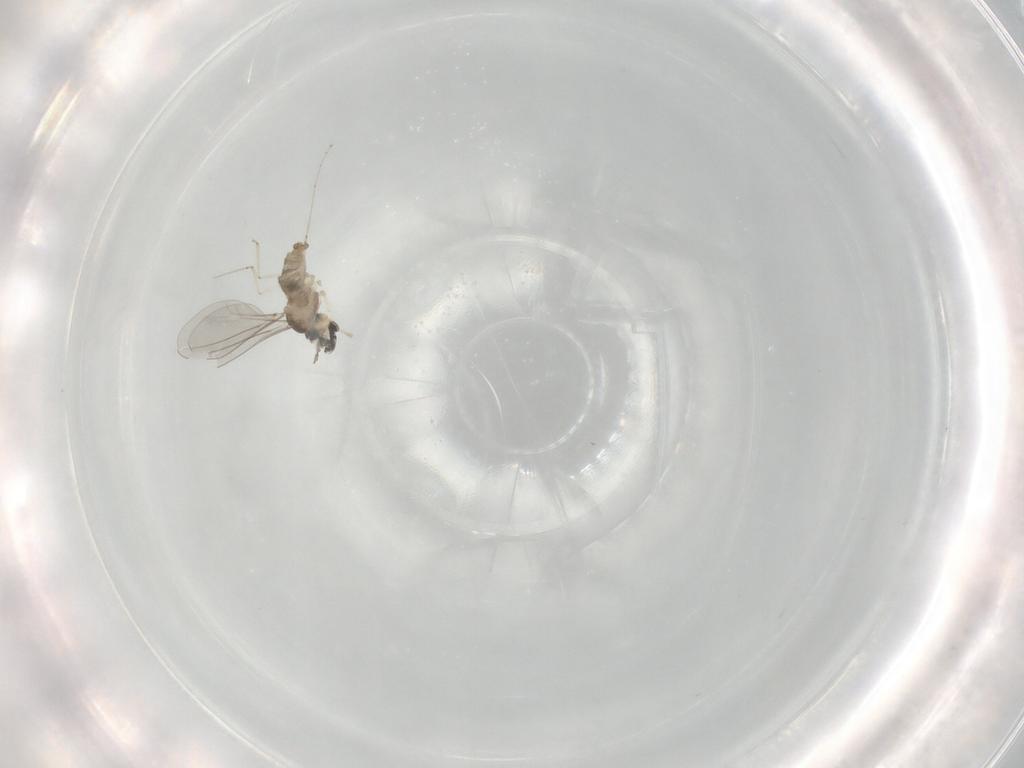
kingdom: Animalia
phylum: Arthropoda
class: Insecta
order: Diptera
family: Cecidomyiidae
